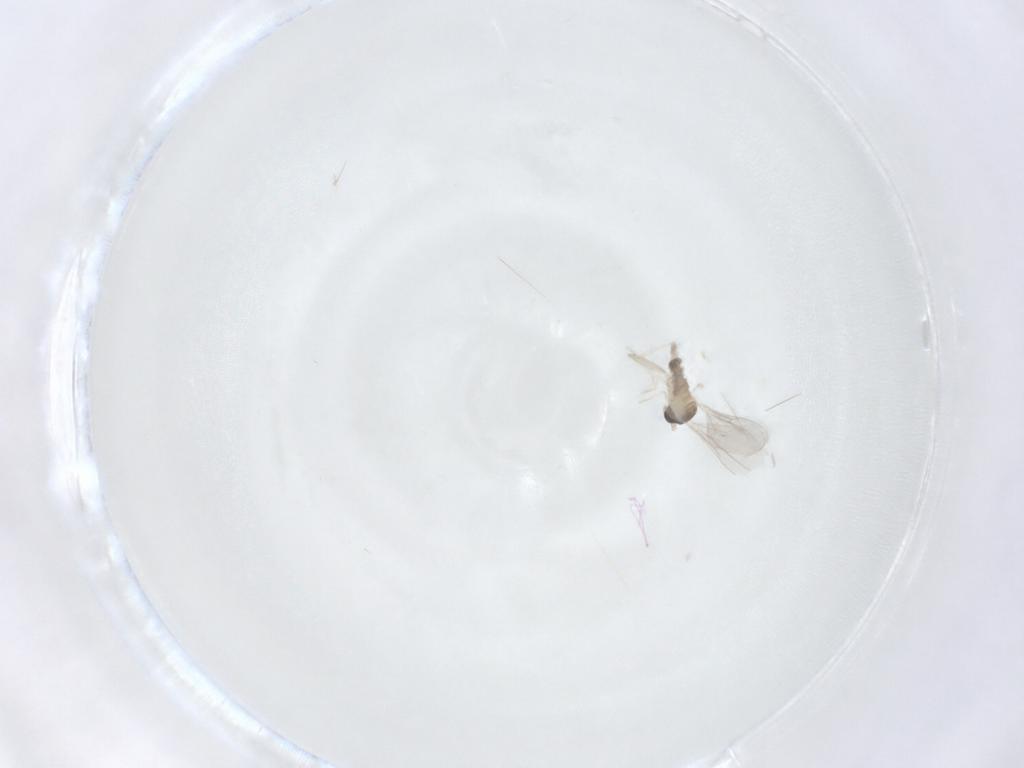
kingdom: Animalia
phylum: Arthropoda
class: Insecta
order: Diptera
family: Cecidomyiidae
